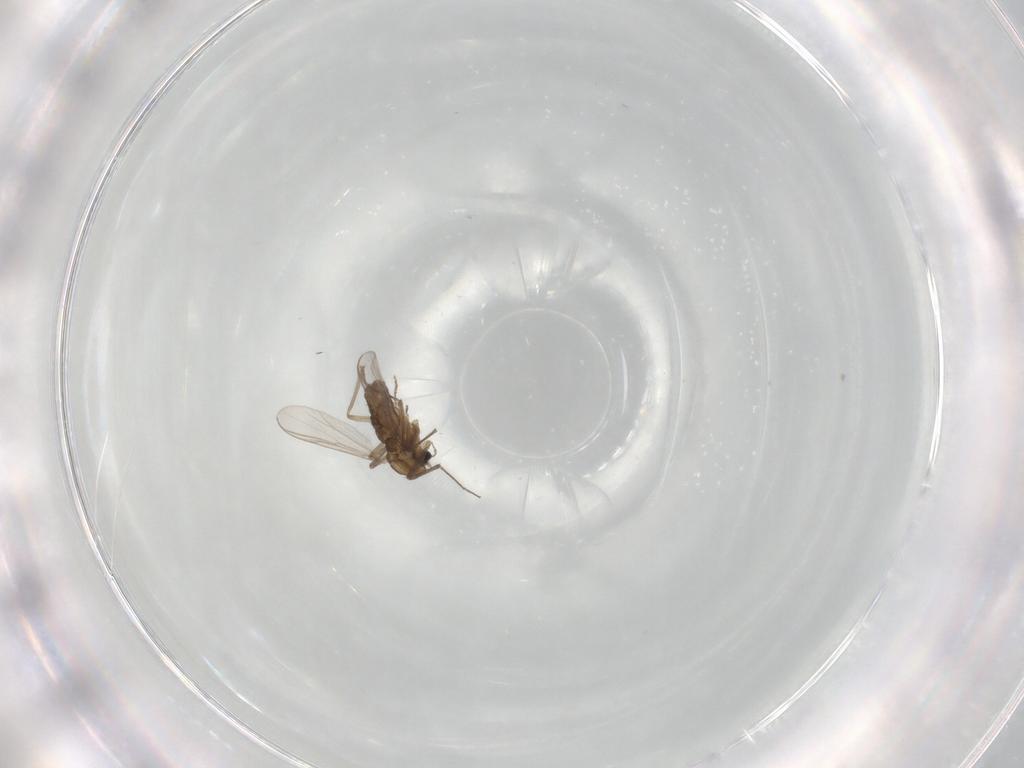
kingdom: Animalia
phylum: Arthropoda
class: Insecta
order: Diptera
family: Chironomidae
